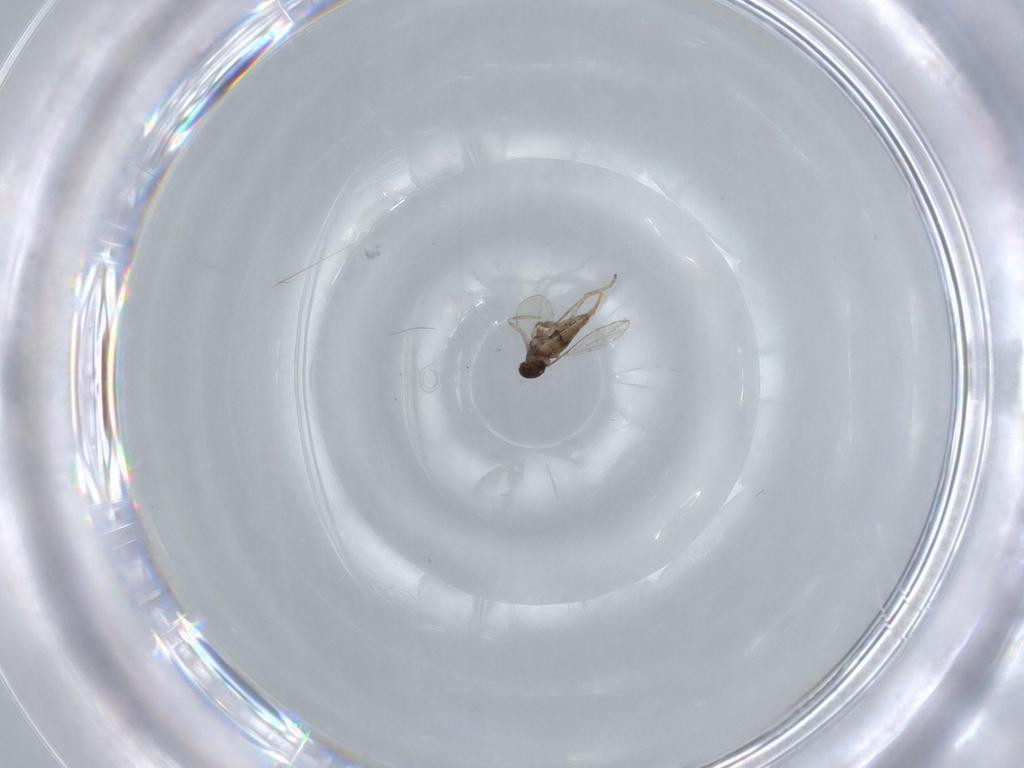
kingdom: Animalia
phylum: Arthropoda
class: Insecta
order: Diptera
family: Cecidomyiidae
